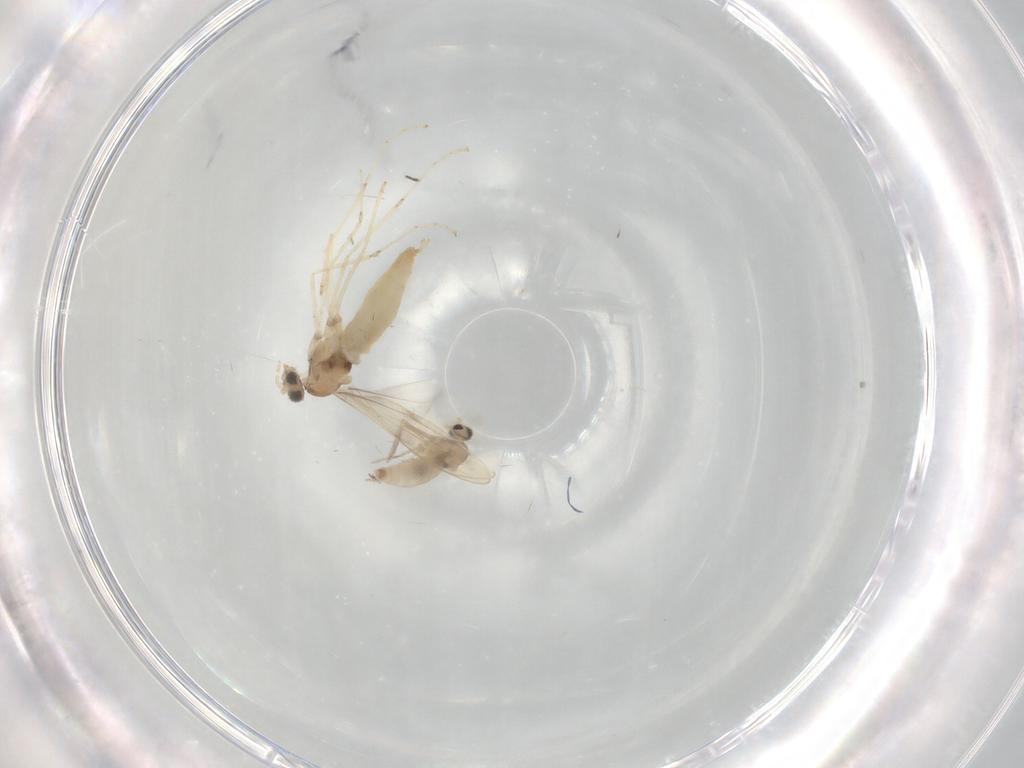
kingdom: Animalia
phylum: Arthropoda
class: Insecta
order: Diptera
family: Cecidomyiidae
